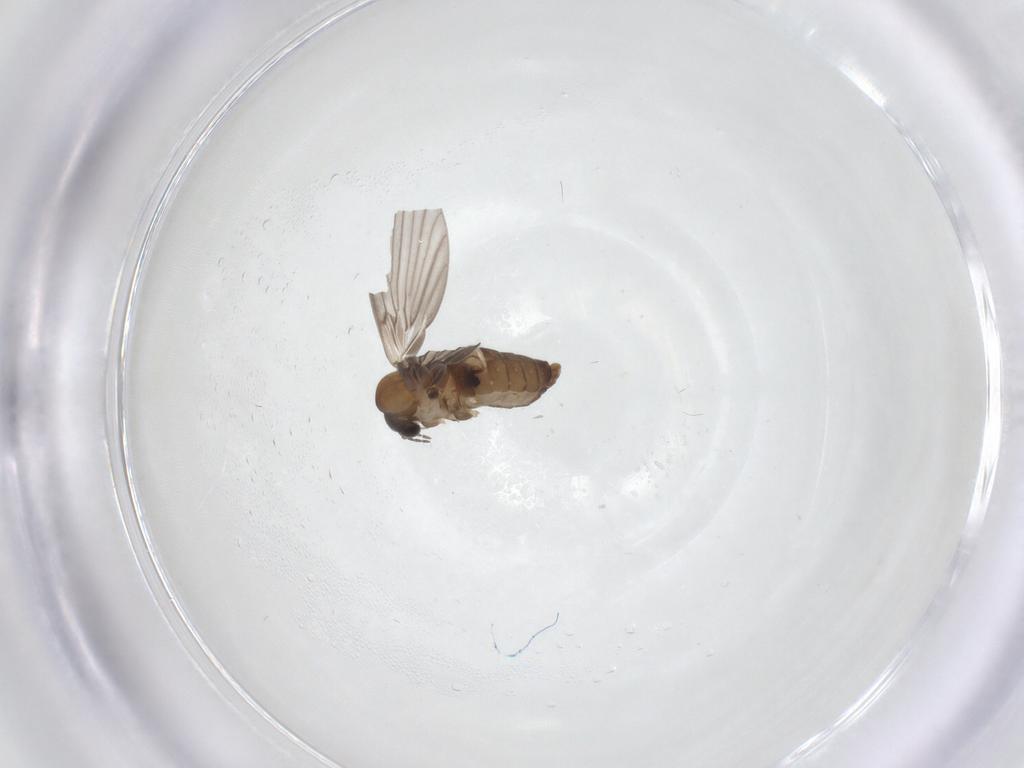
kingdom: Animalia
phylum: Arthropoda
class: Insecta
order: Diptera
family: Psychodidae
